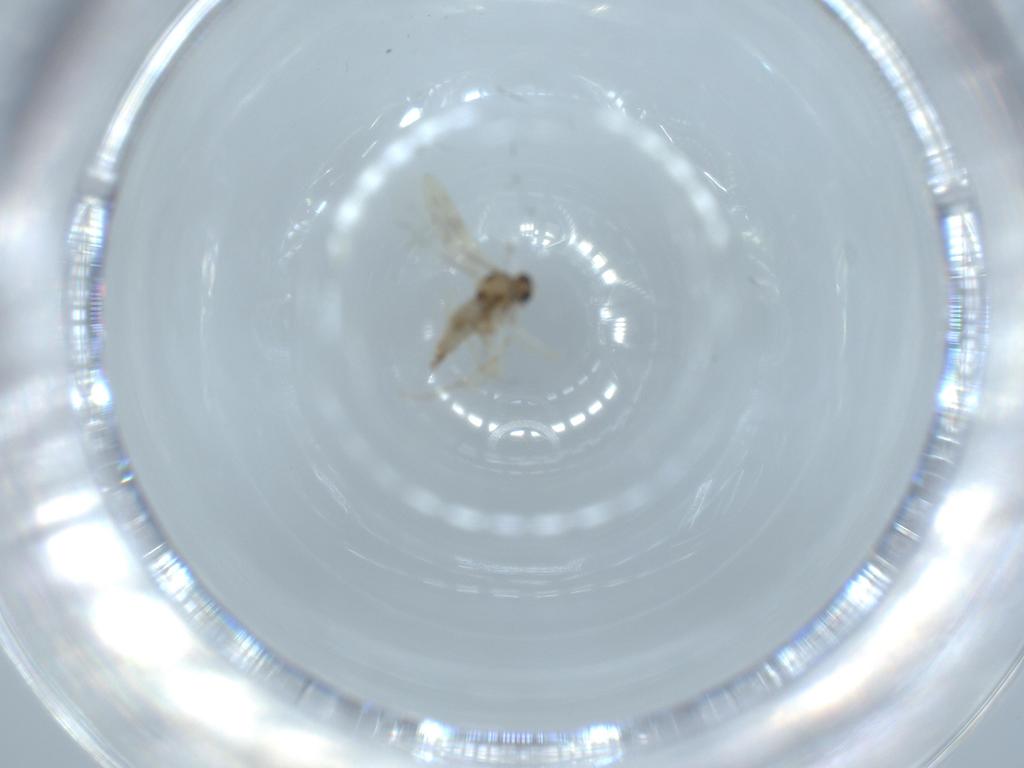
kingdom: Animalia
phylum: Arthropoda
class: Insecta
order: Diptera
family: Cecidomyiidae
